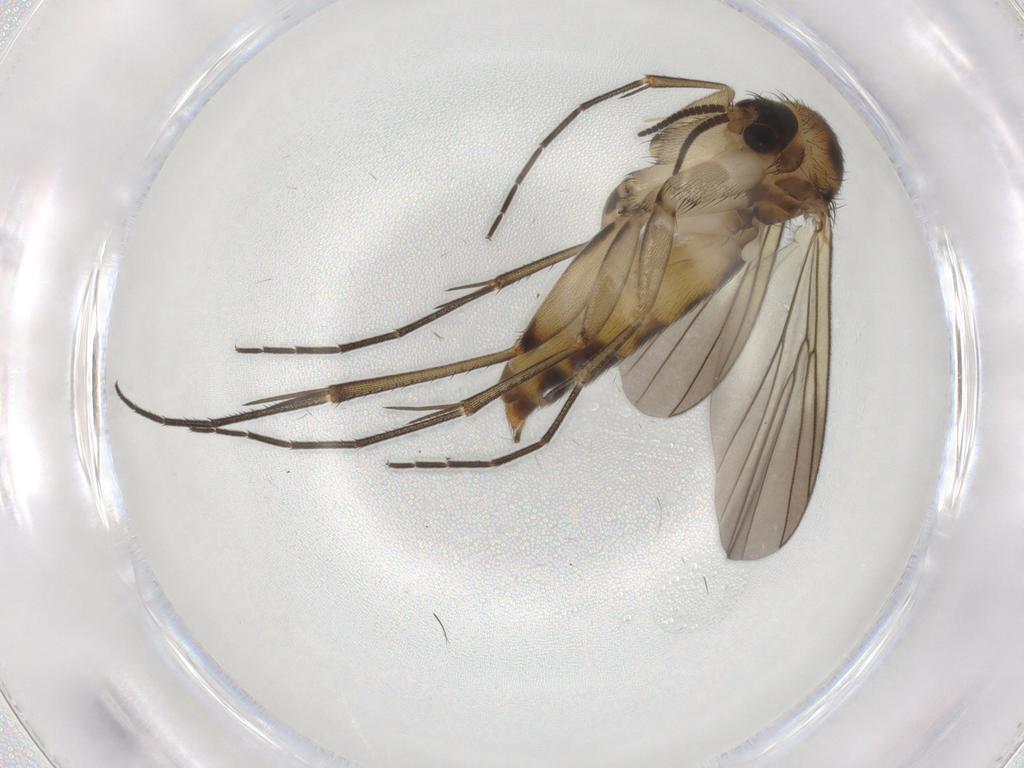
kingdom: Animalia
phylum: Arthropoda
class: Insecta
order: Diptera
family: Mycetophilidae
